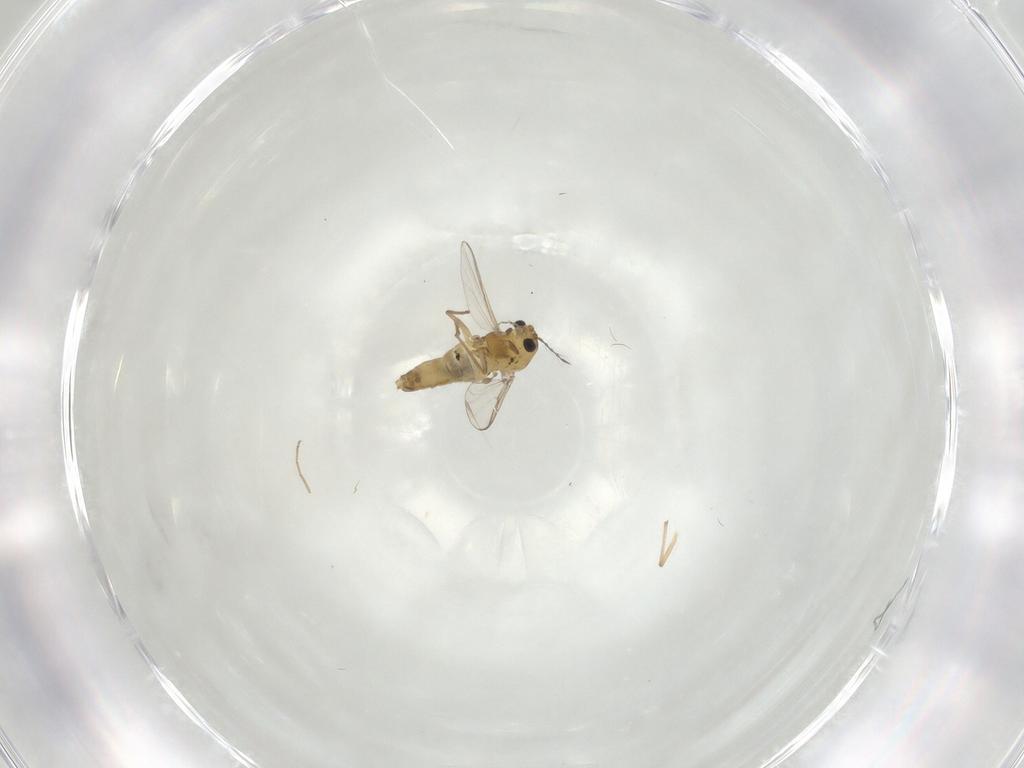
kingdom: Animalia
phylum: Arthropoda
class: Insecta
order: Diptera
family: Chironomidae
